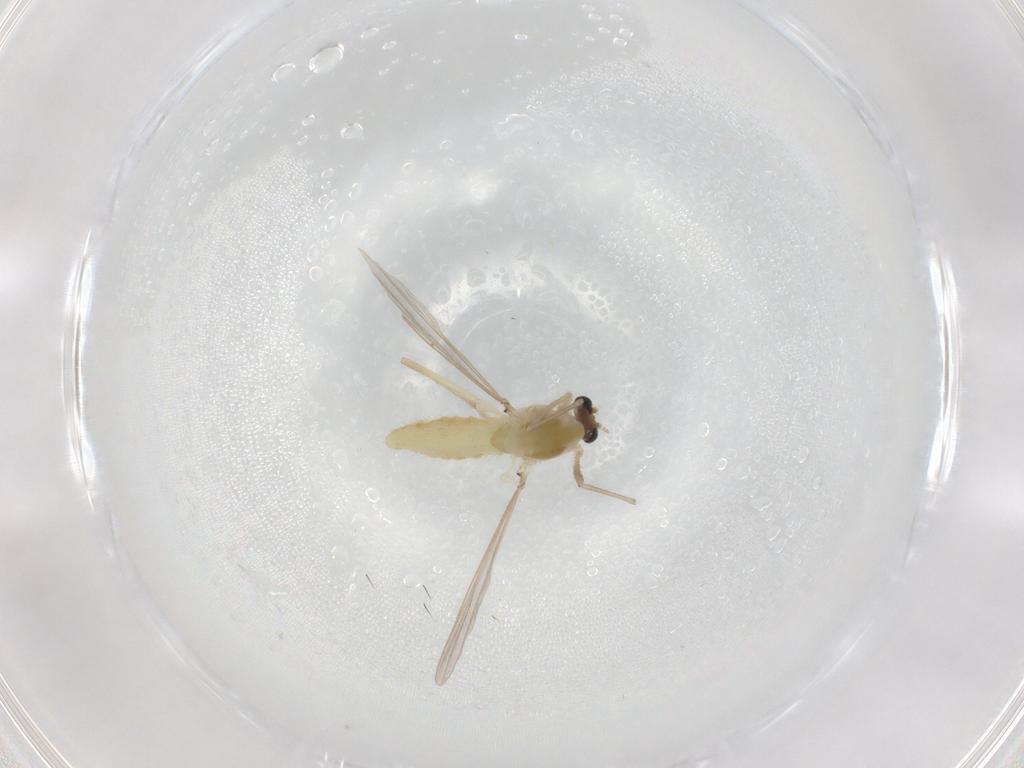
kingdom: Animalia
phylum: Arthropoda
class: Insecta
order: Diptera
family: Chironomidae
